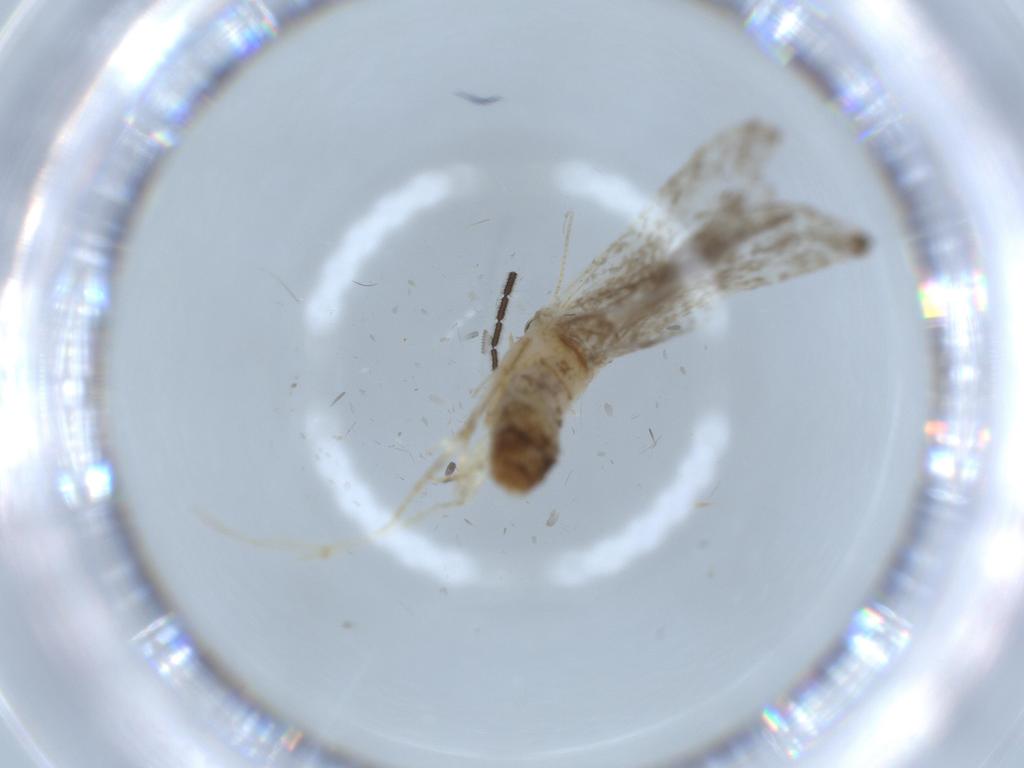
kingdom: Animalia
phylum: Arthropoda
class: Insecta
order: Lepidoptera
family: Tineidae
